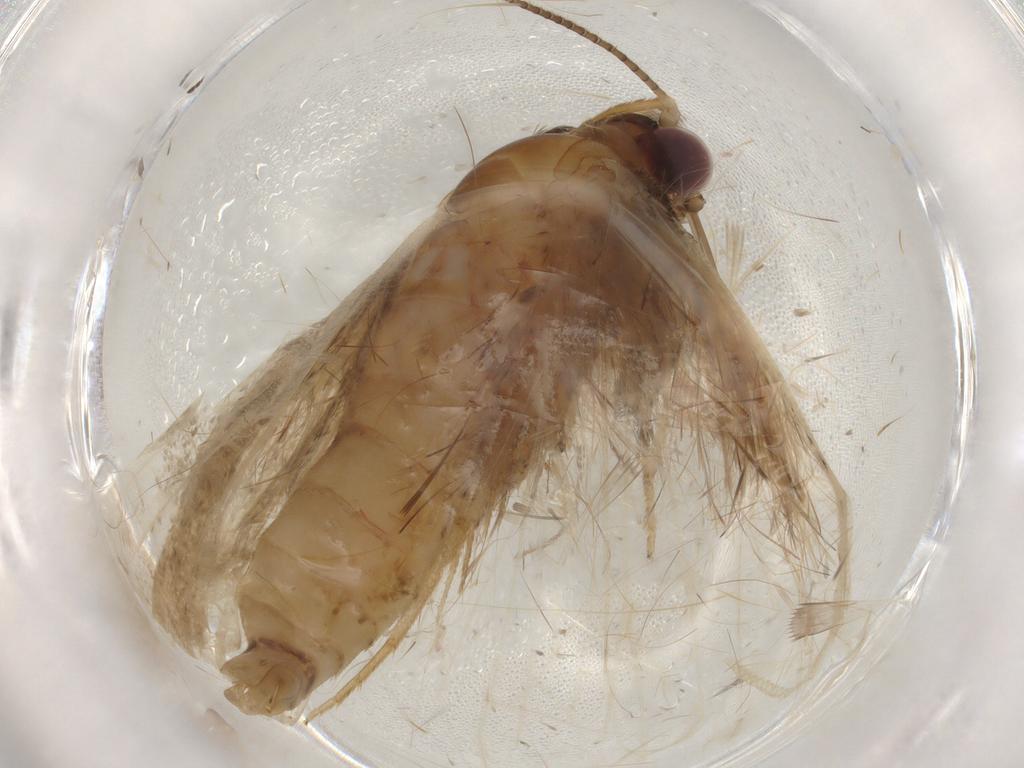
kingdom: Animalia
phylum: Arthropoda
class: Insecta
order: Lepidoptera
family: Erebidae
